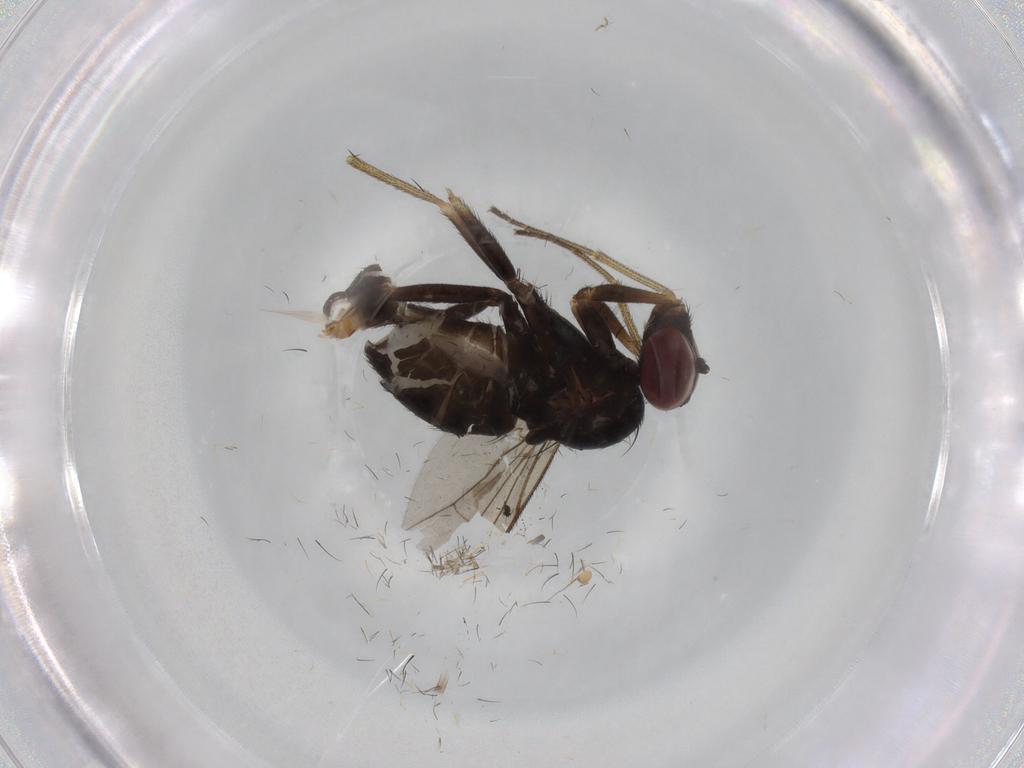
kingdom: Animalia
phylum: Arthropoda
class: Insecta
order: Diptera
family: Dolichopodidae
